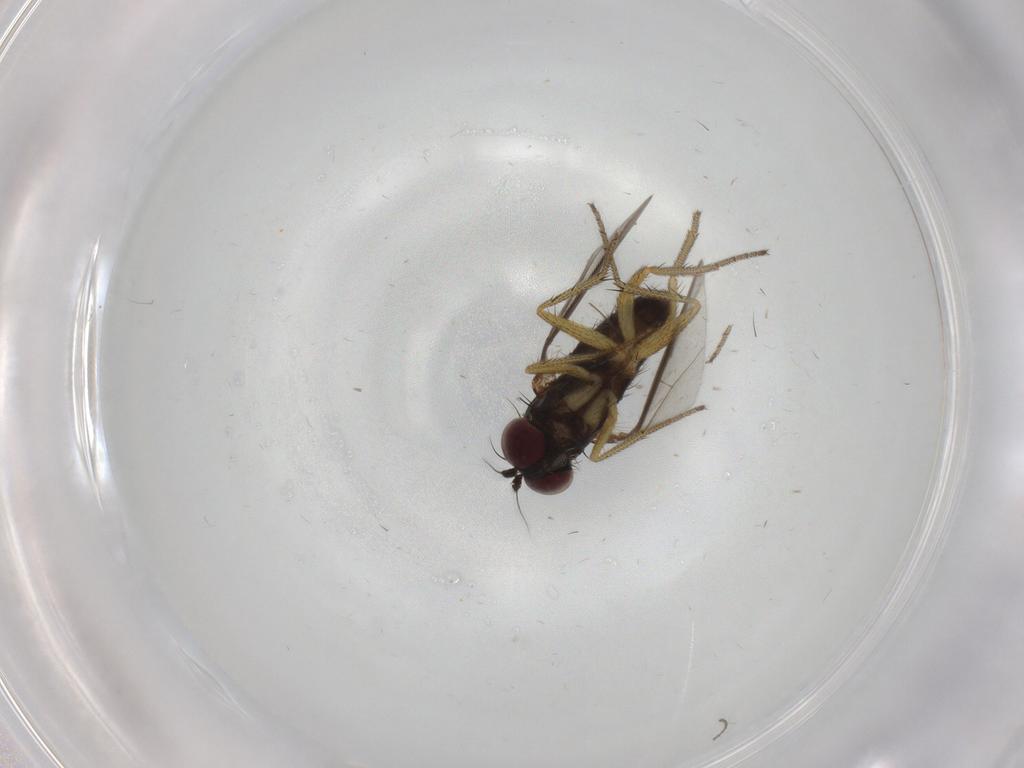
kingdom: Animalia
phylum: Arthropoda
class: Insecta
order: Diptera
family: Dolichopodidae
